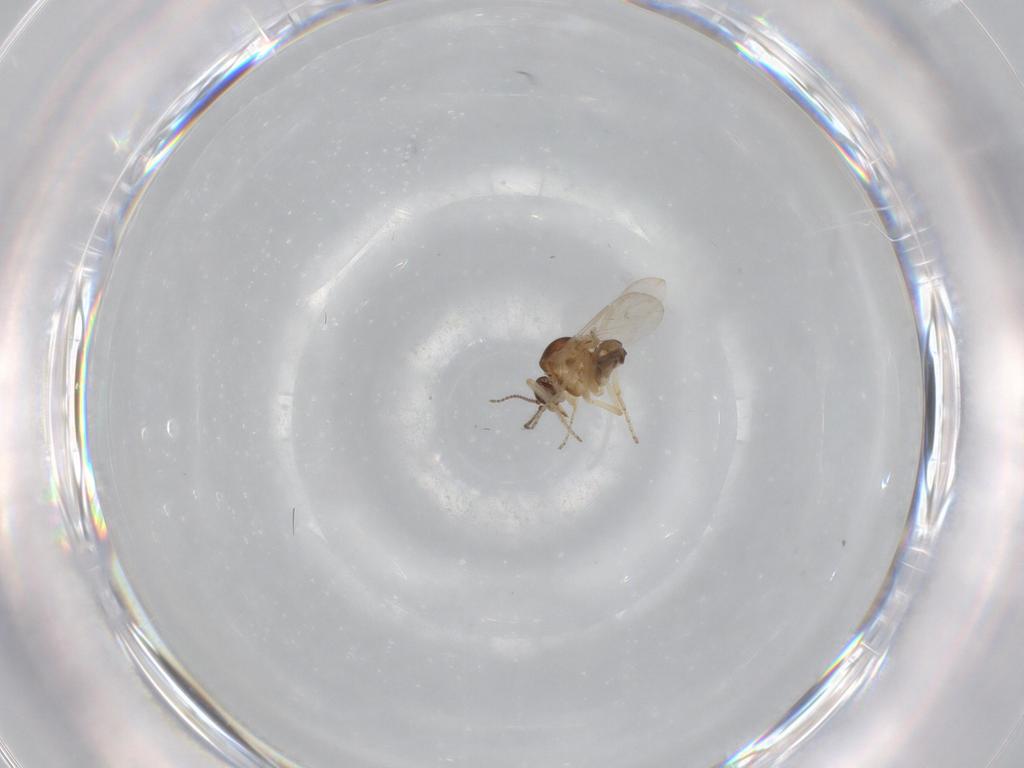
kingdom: Animalia
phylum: Arthropoda
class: Insecta
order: Diptera
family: Ceratopogonidae
